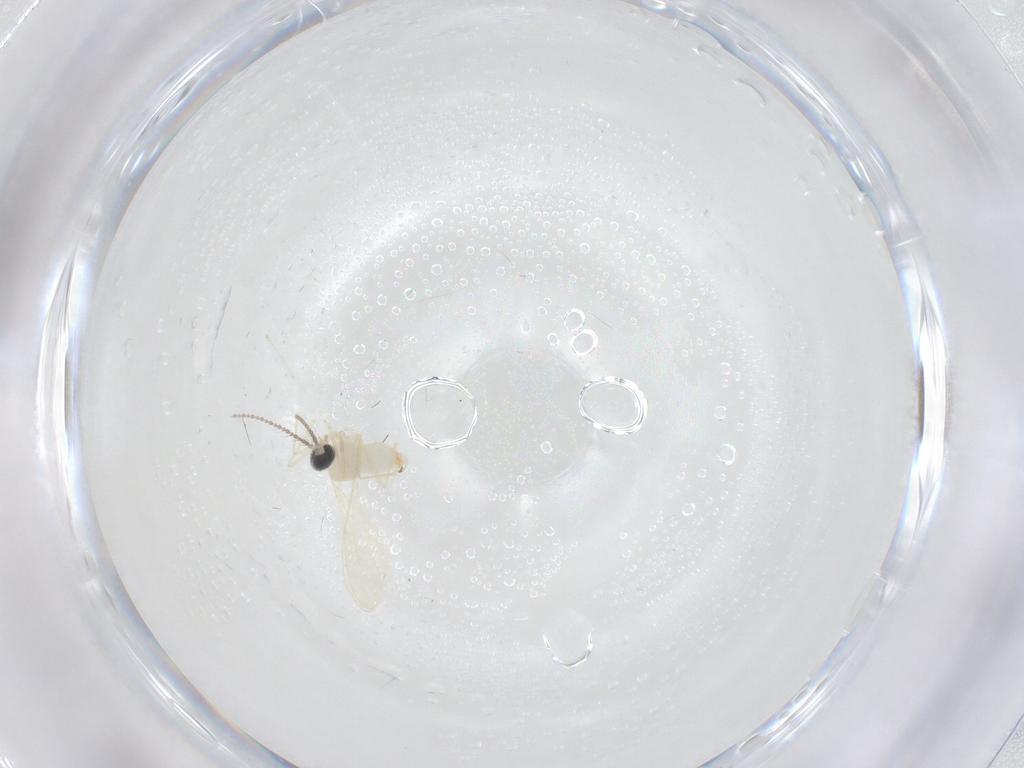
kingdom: Animalia
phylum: Arthropoda
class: Insecta
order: Diptera
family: Cecidomyiidae
